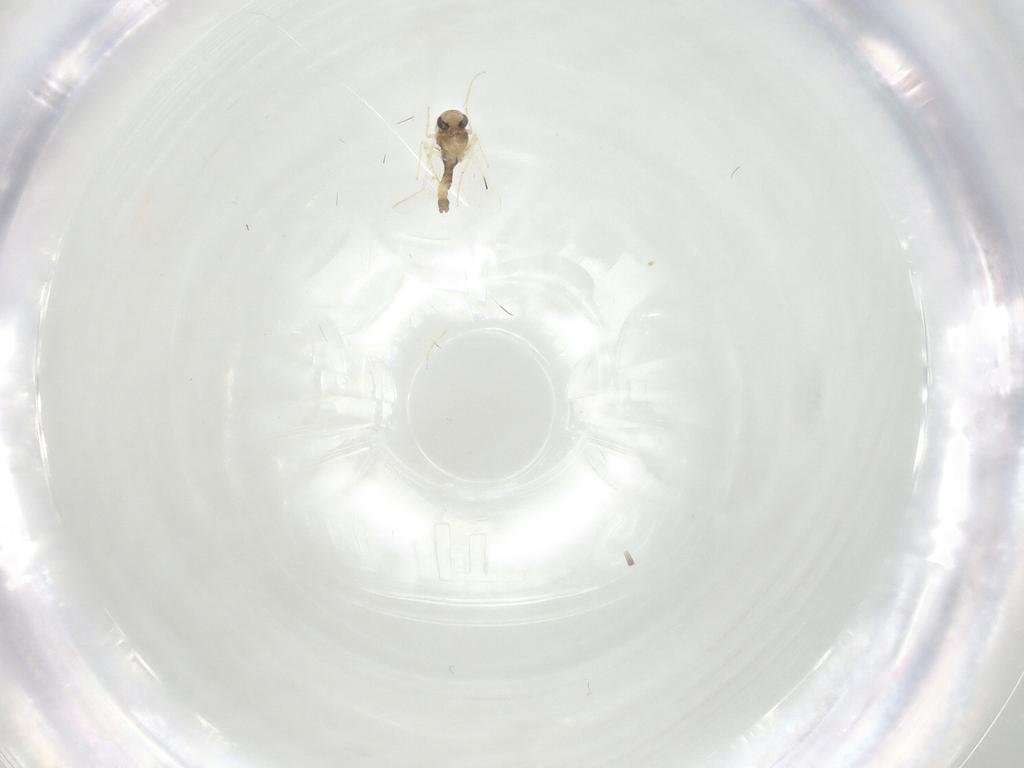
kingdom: Animalia
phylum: Arthropoda
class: Insecta
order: Diptera
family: Chironomidae
